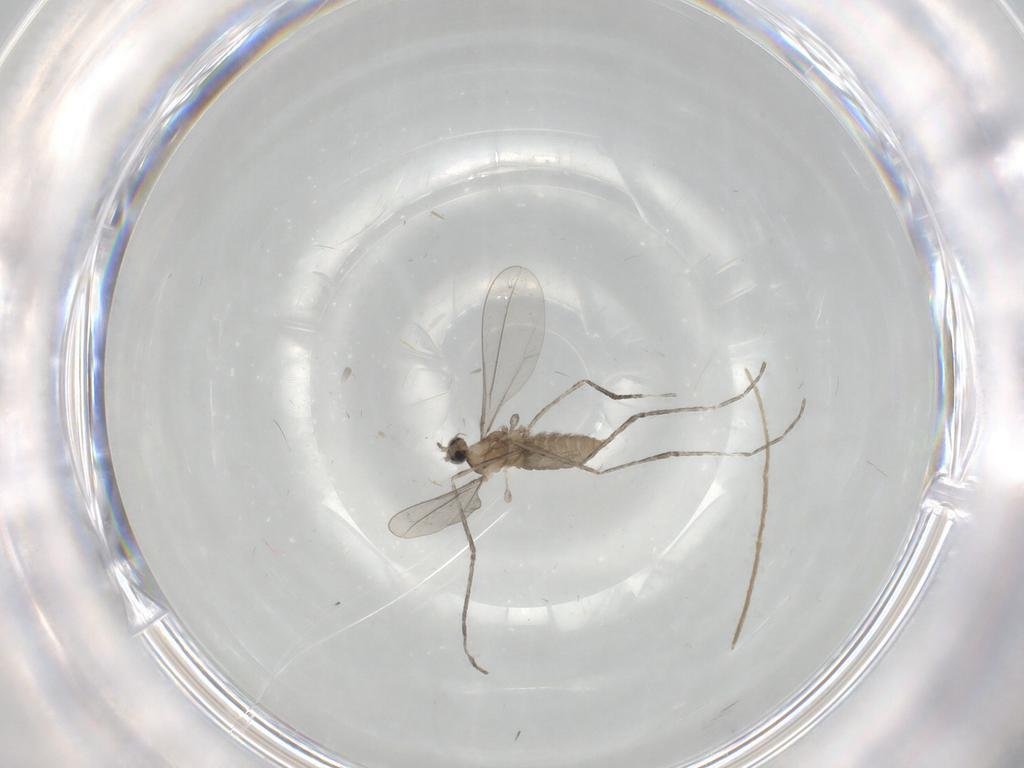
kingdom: Animalia
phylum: Arthropoda
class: Insecta
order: Diptera
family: Cecidomyiidae
